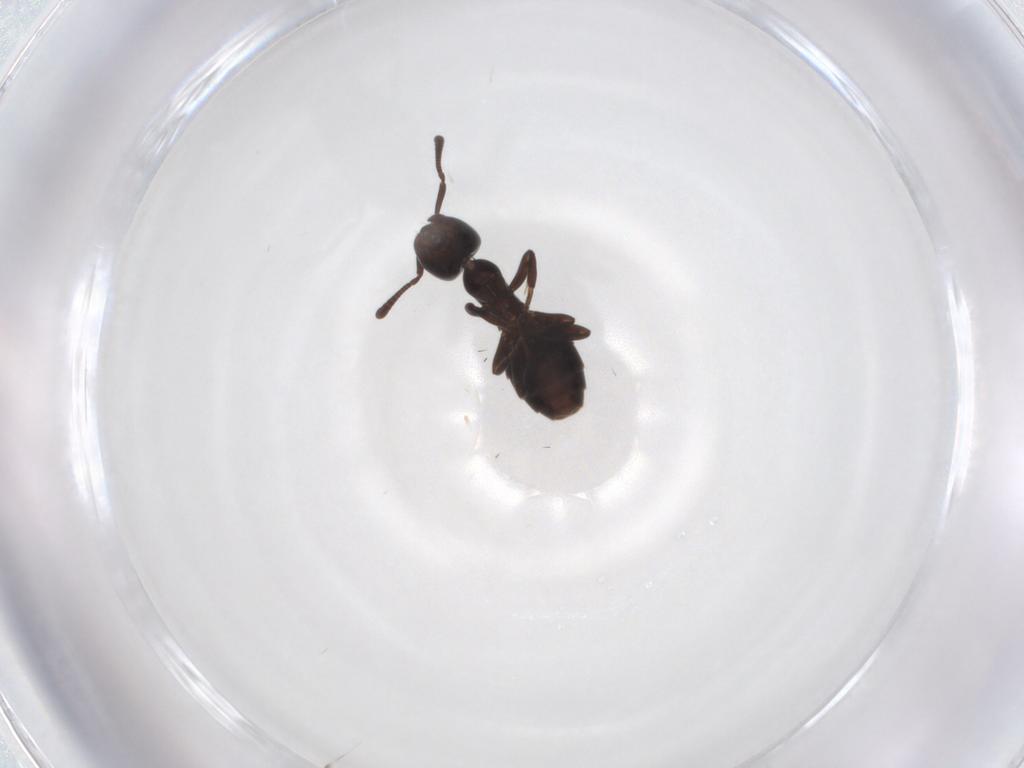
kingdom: Animalia
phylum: Arthropoda
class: Insecta
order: Hymenoptera
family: Formicidae
